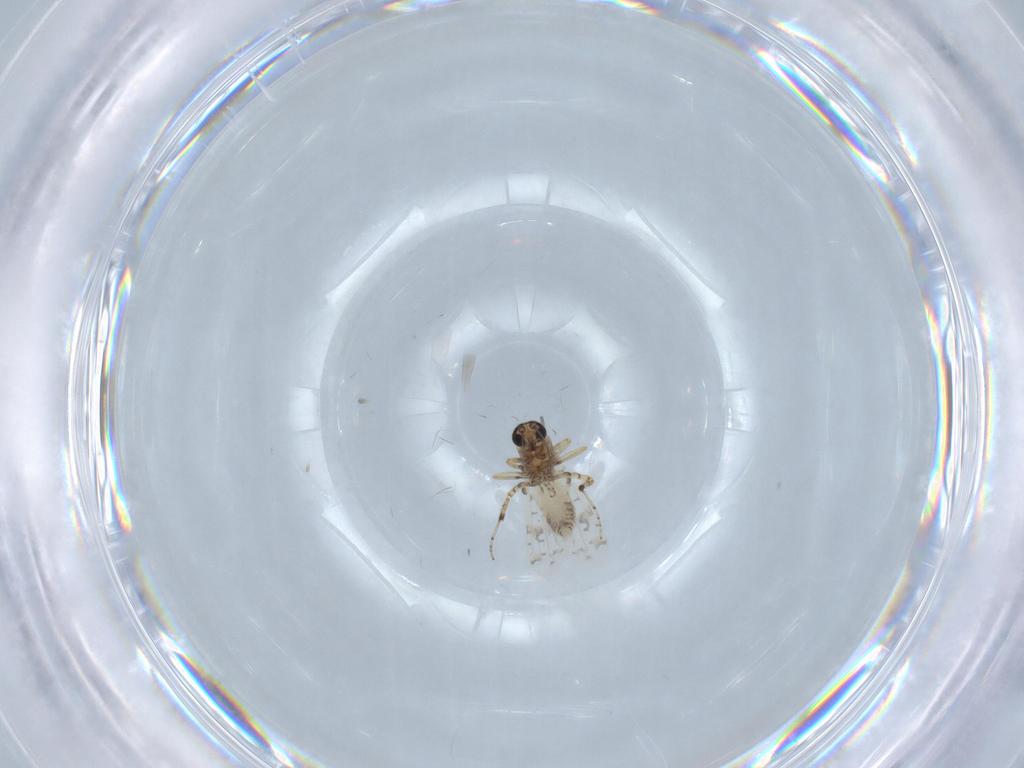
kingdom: Animalia
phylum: Arthropoda
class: Insecta
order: Diptera
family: Ceratopogonidae
